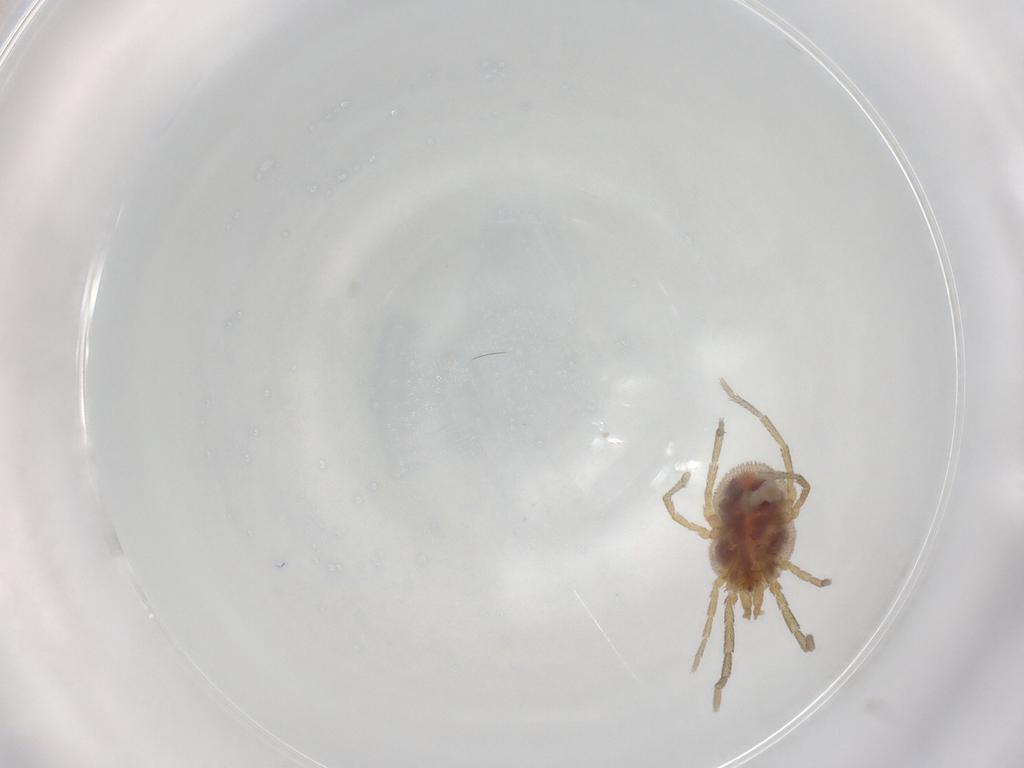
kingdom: Animalia
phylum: Arthropoda
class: Arachnida
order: Trombidiformes
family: Erythraeidae
